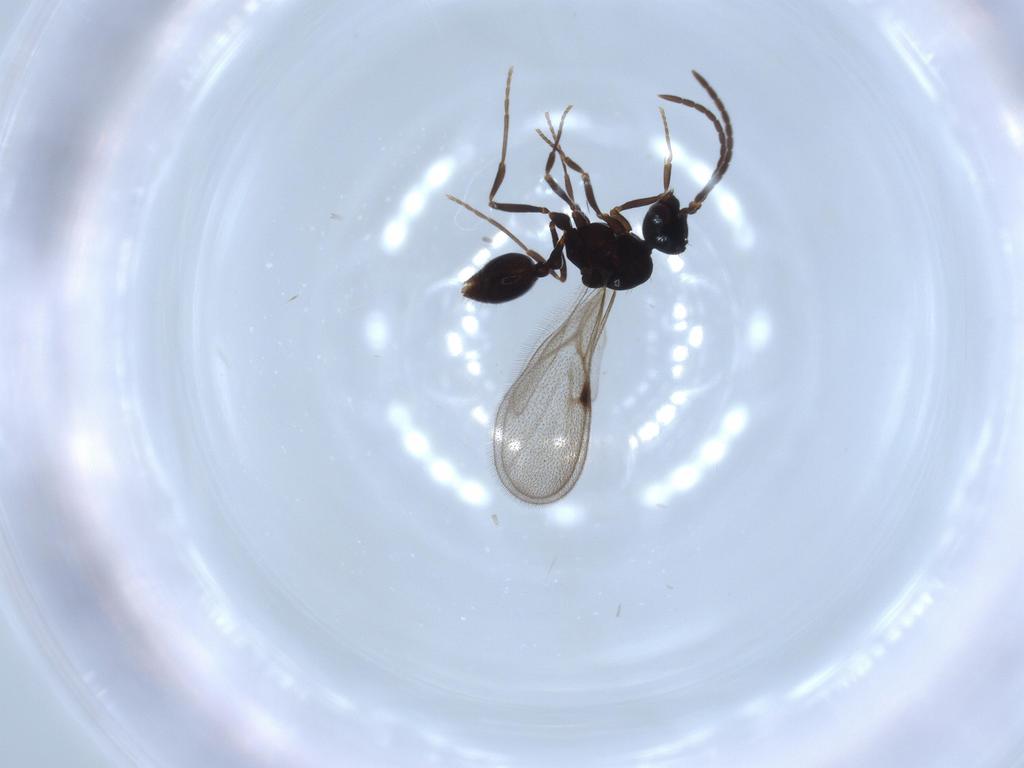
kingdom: Animalia
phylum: Arthropoda
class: Insecta
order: Hymenoptera
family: Formicidae
